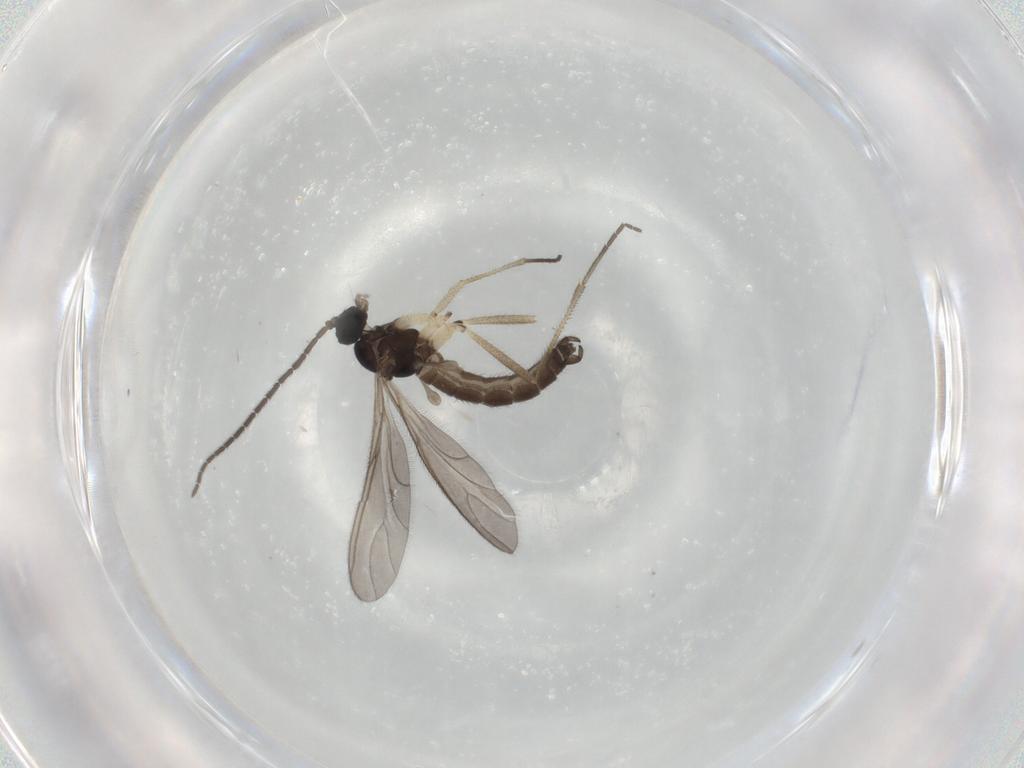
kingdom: Animalia
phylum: Arthropoda
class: Insecta
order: Diptera
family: Sciaridae
